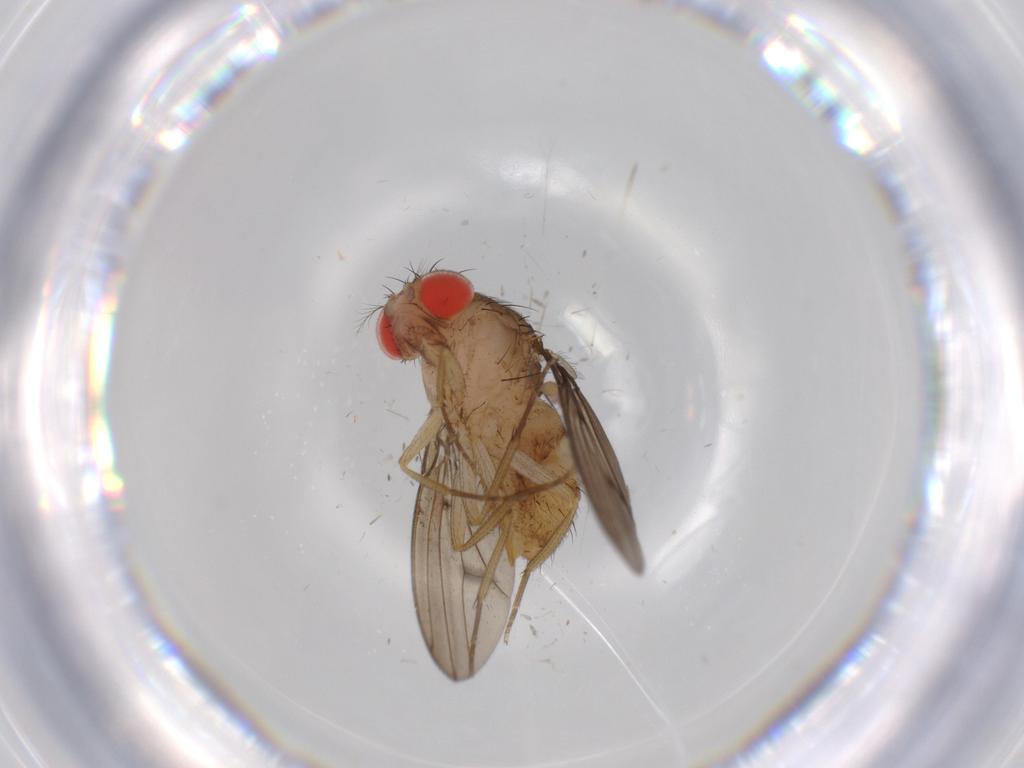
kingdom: Animalia
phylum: Arthropoda
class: Insecta
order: Diptera
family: Drosophilidae
